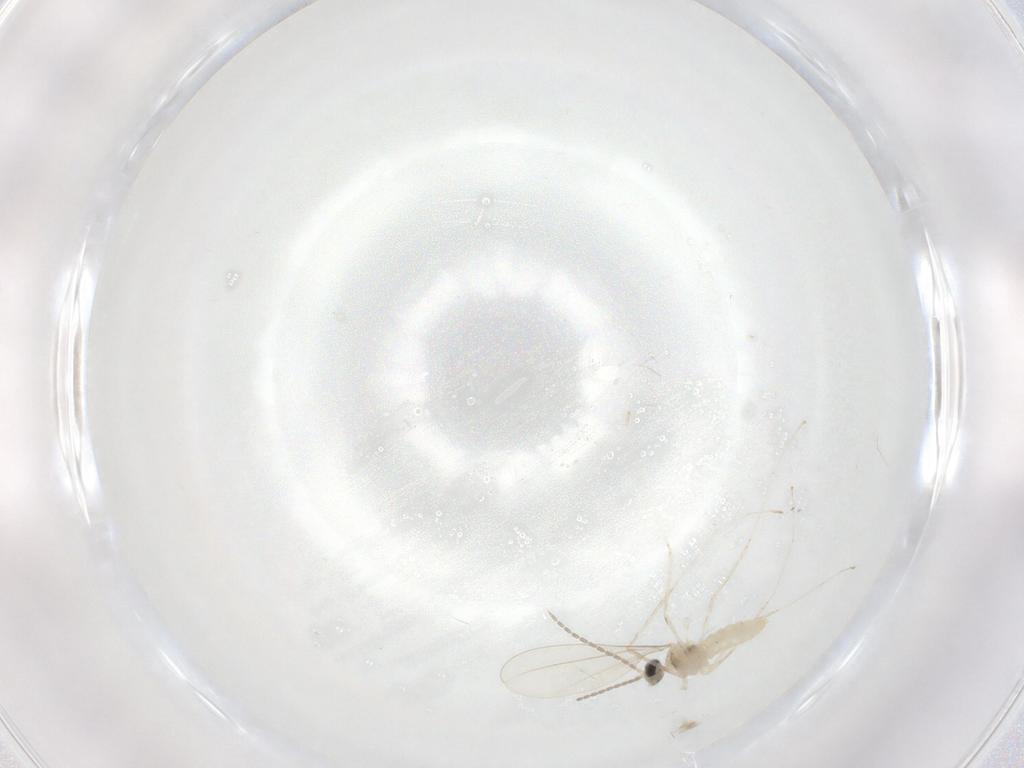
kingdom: Animalia
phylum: Arthropoda
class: Insecta
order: Diptera
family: Cecidomyiidae
